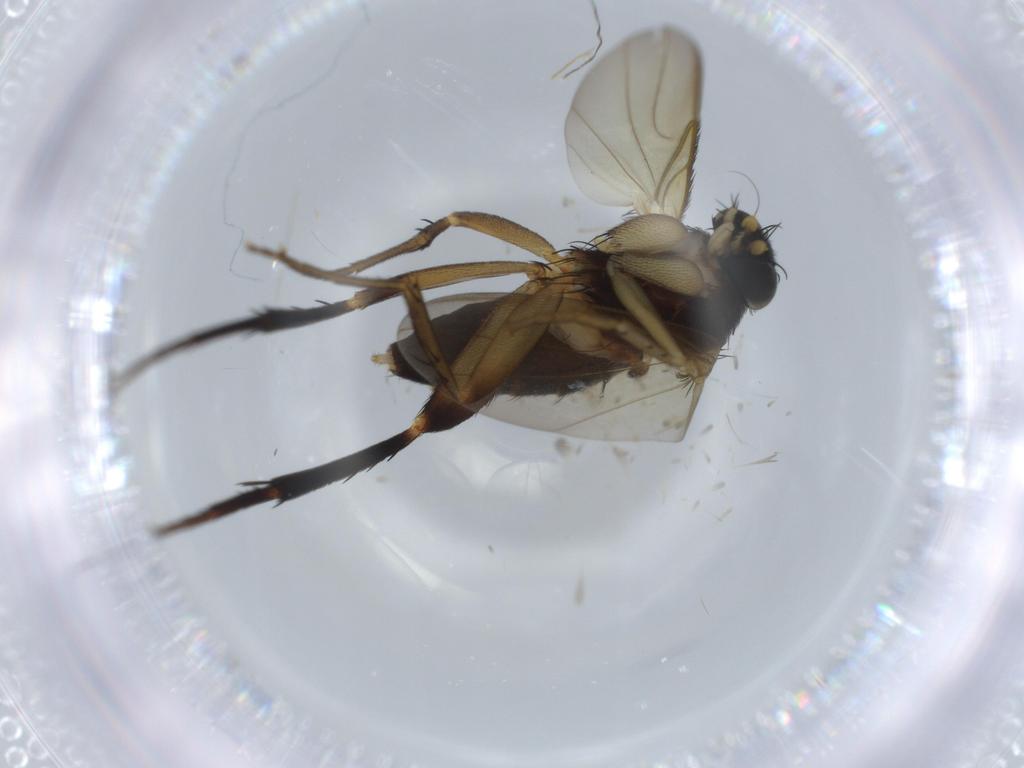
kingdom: Animalia
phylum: Arthropoda
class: Insecta
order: Diptera
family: Phoridae
